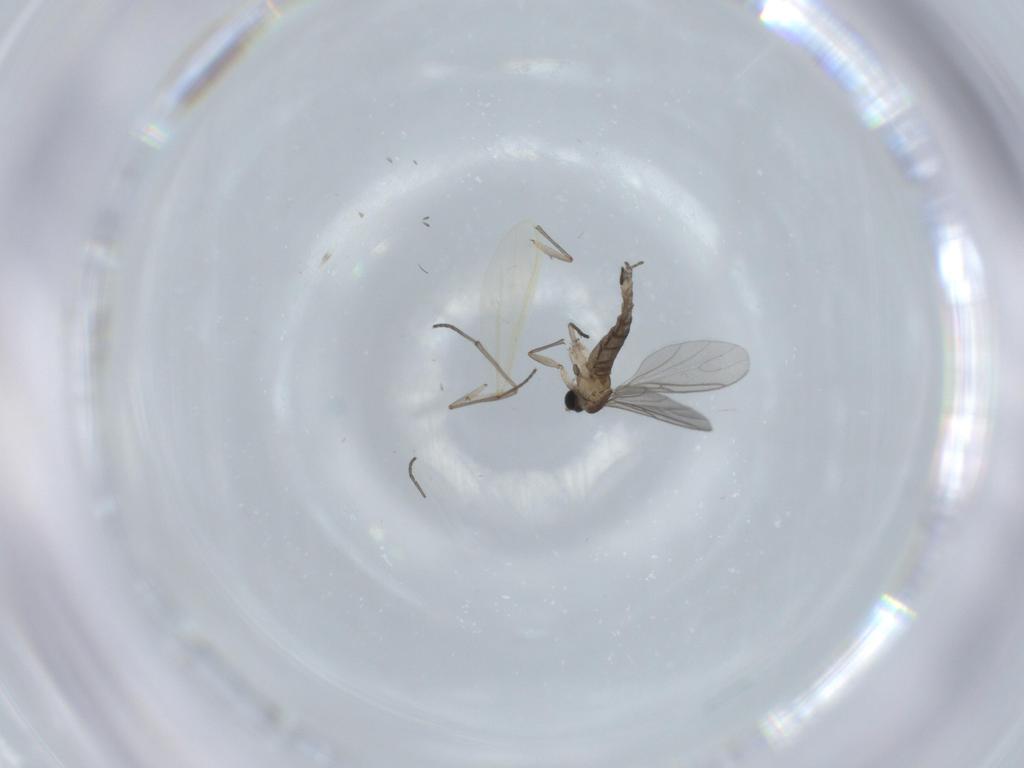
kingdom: Animalia
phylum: Arthropoda
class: Insecta
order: Diptera
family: Sciaridae
